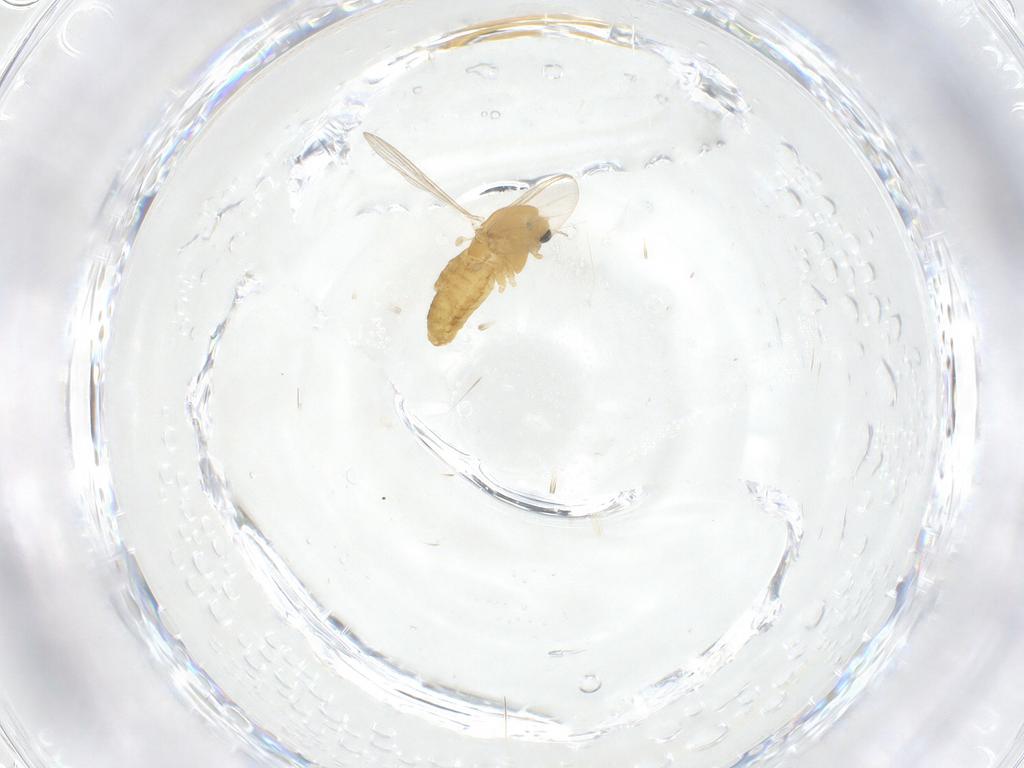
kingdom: Animalia
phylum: Arthropoda
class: Insecta
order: Diptera
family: Chironomidae
